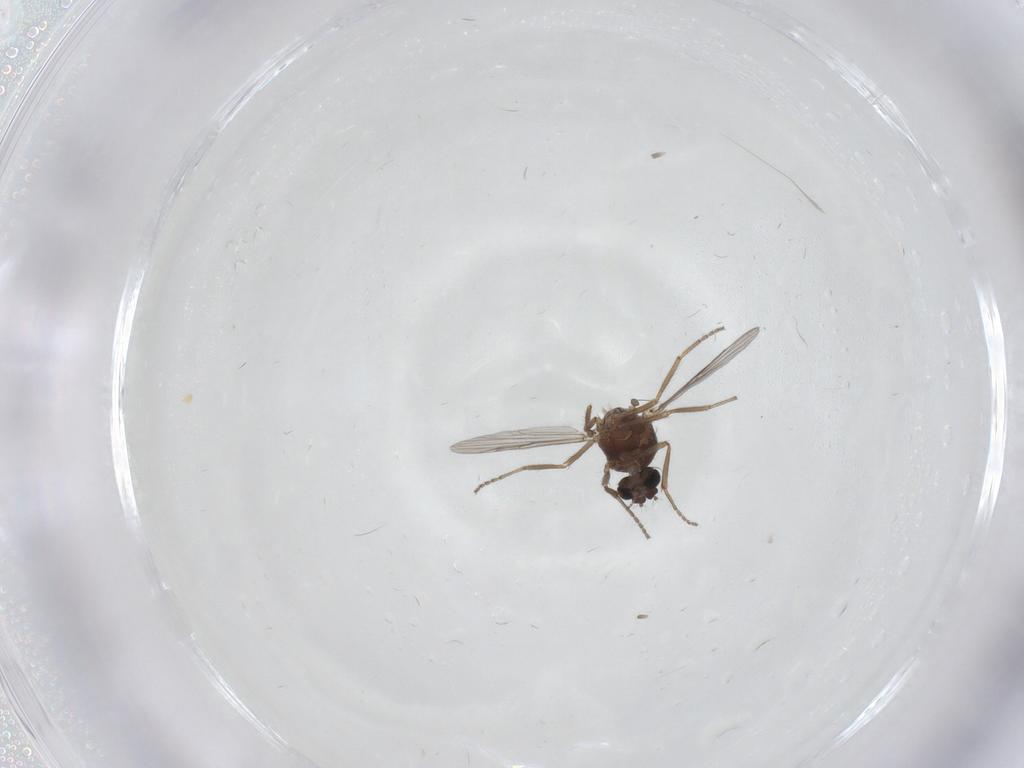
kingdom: Animalia
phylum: Arthropoda
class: Insecta
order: Diptera
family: Ceratopogonidae
